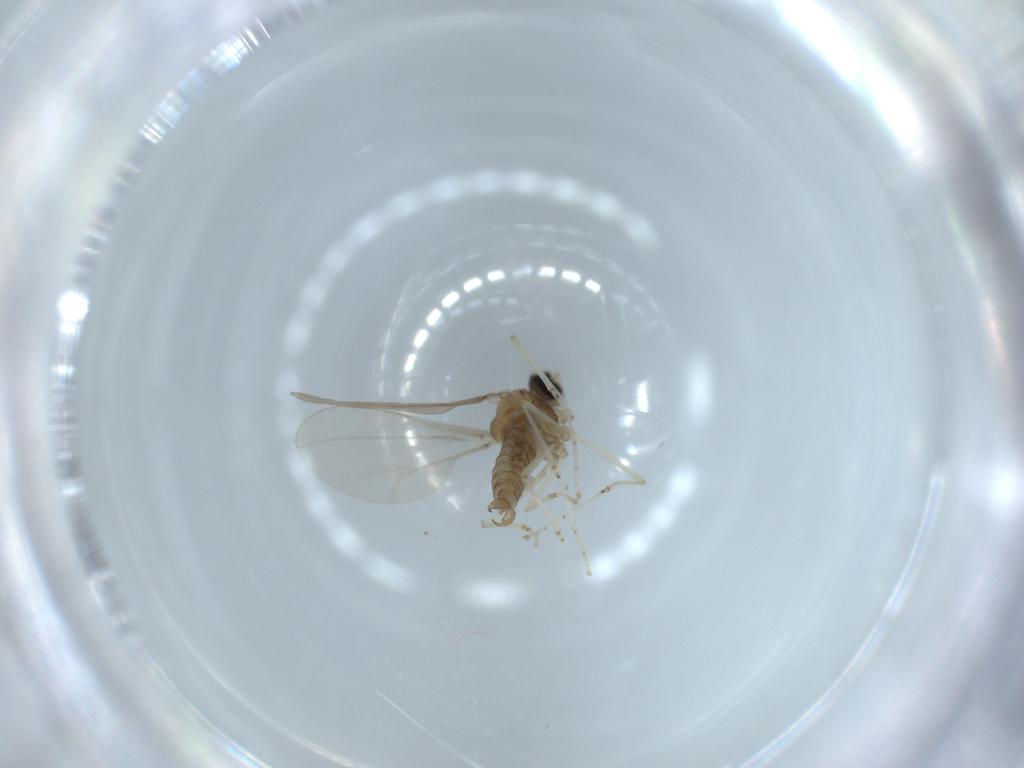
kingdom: Animalia
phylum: Arthropoda
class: Insecta
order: Diptera
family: Cecidomyiidae
